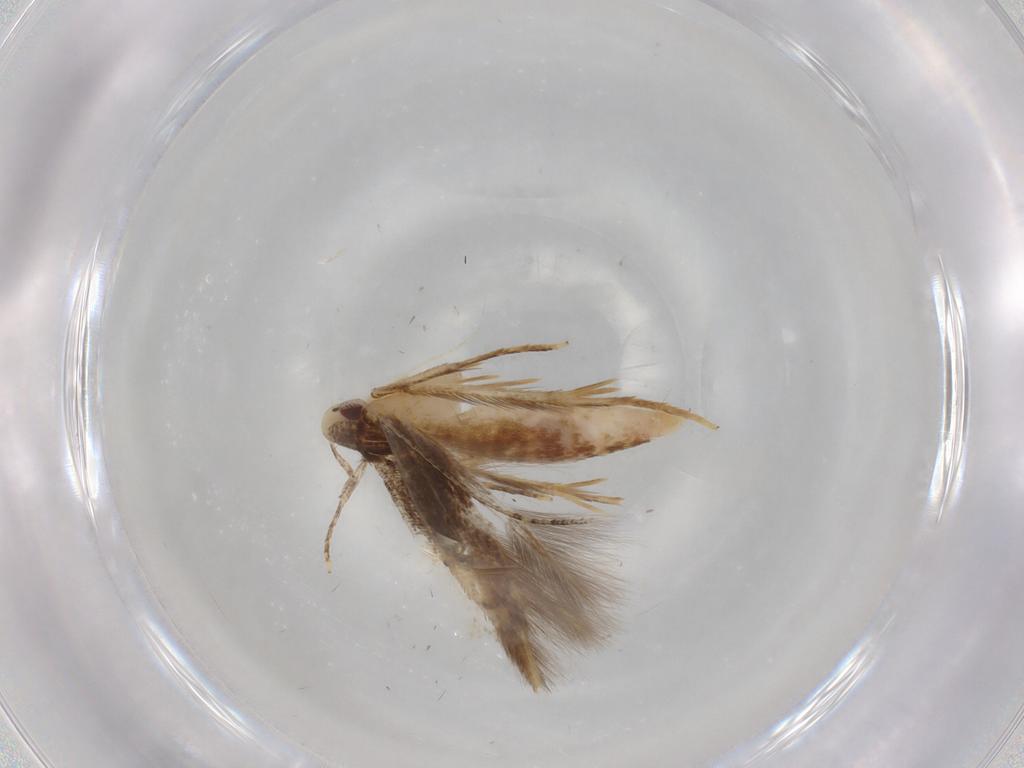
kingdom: Animalia
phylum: Arthropoda
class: Insecta
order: Lepidoptera
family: Gelechiidae
